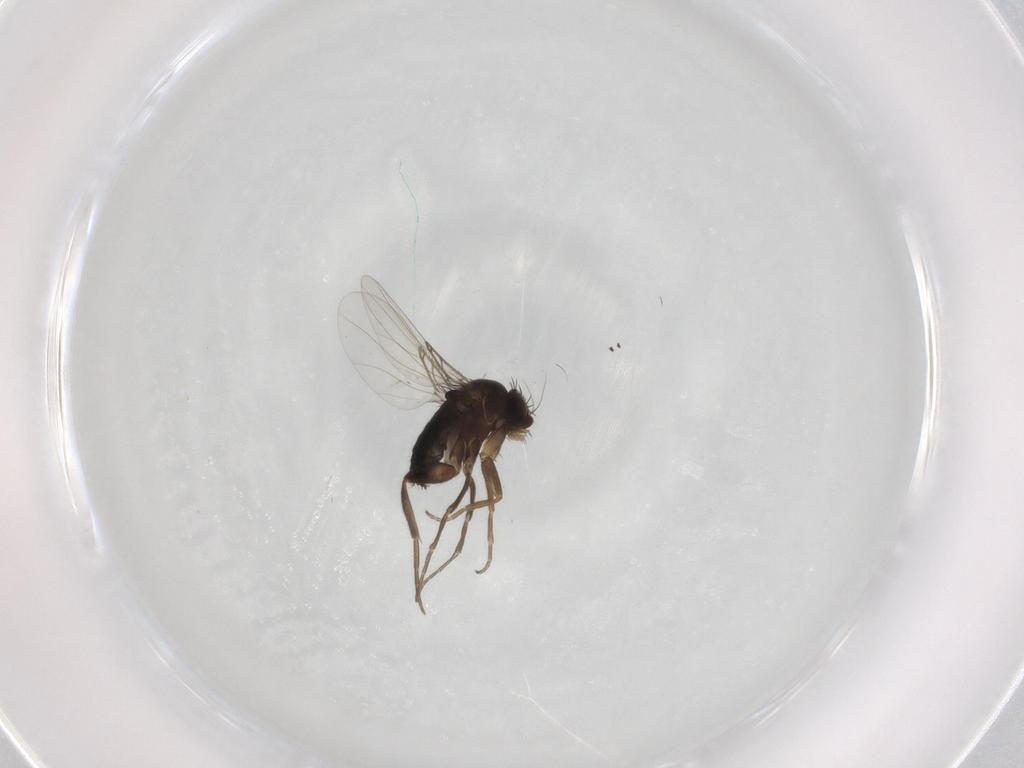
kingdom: Animalia
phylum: Arthropoda
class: Insecta
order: Diptera
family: Phoridae
